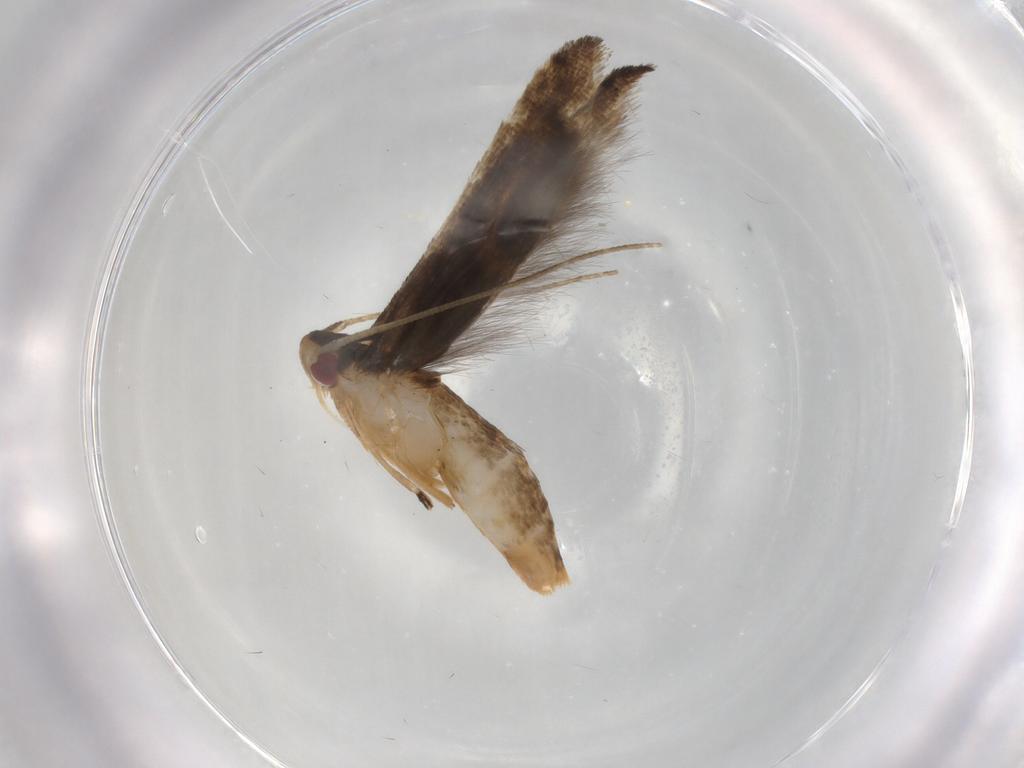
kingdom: Animalia
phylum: Arthropoda
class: Insecta
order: Lepidoptera
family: Momphidae
